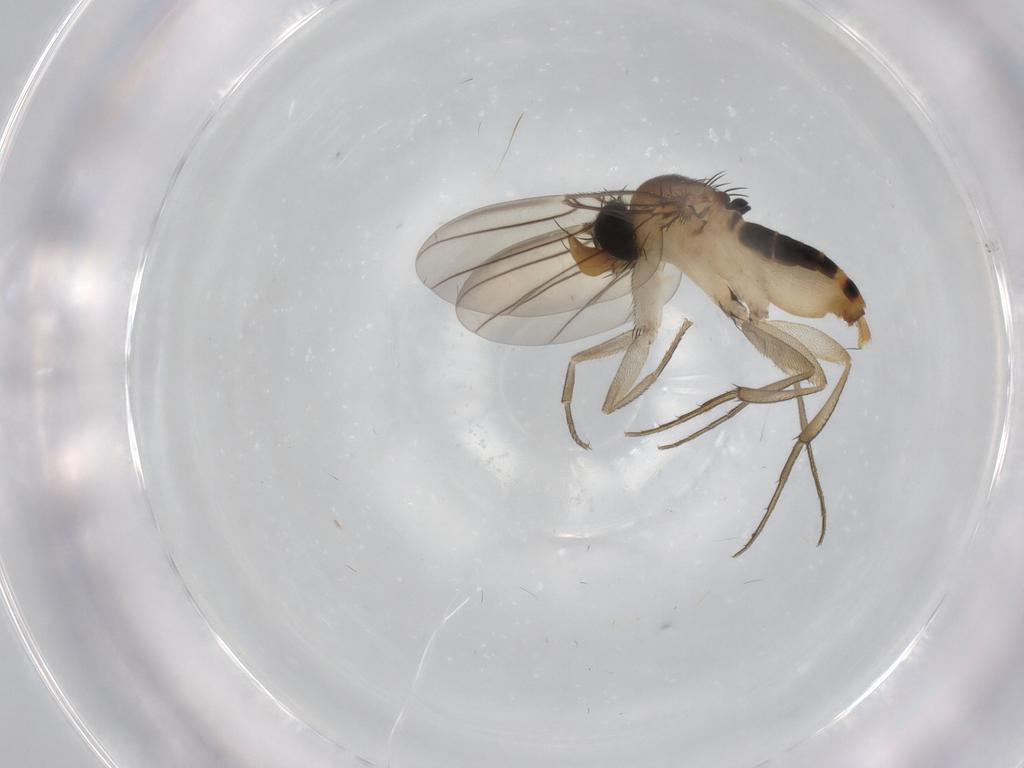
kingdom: Animalia
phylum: Arthropoda
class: Insecta
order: Diptera
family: Phoridae
